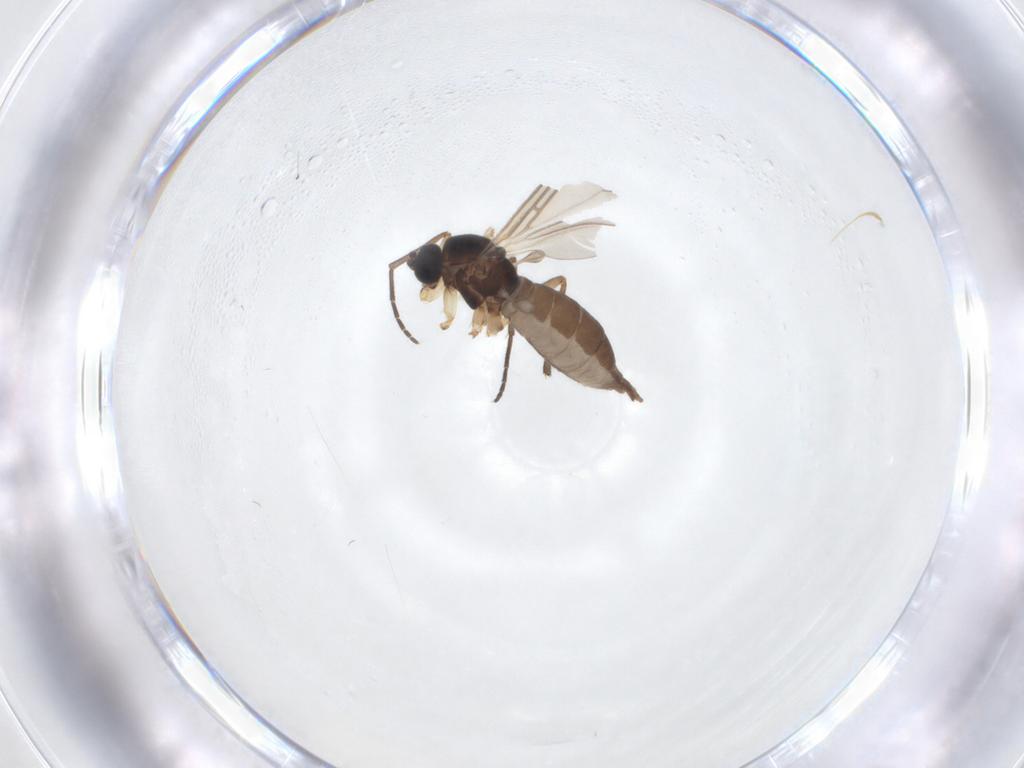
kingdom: Animalia
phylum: Arthropoda
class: Insecta
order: Diptera
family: Sciaridae
